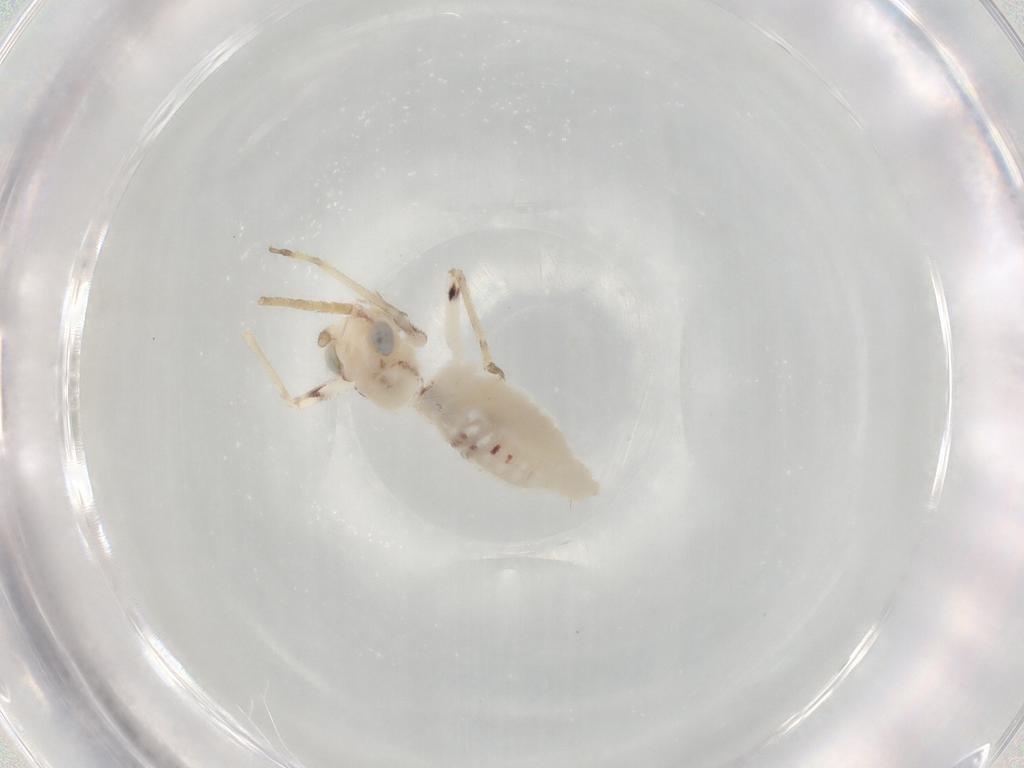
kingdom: Animalia
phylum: Arthropoda
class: Insecta
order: Orthoptera
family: Trigonidiidae
